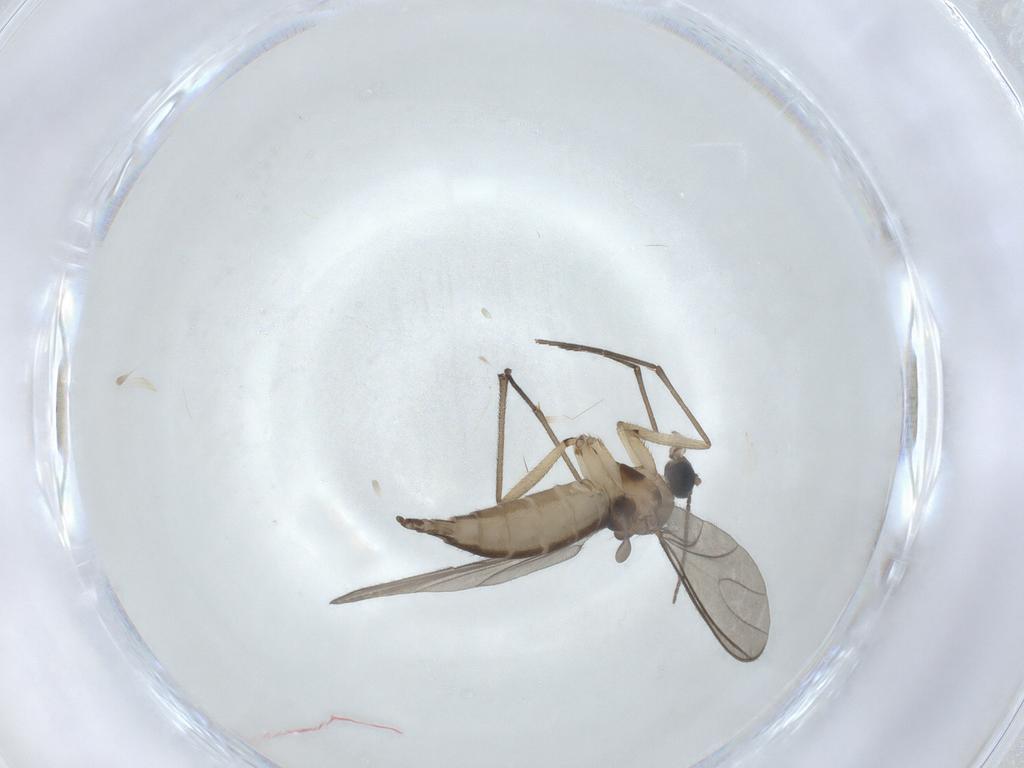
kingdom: Animalia
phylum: Arthropoda
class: Insecta
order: Diptera
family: Sciaridae
